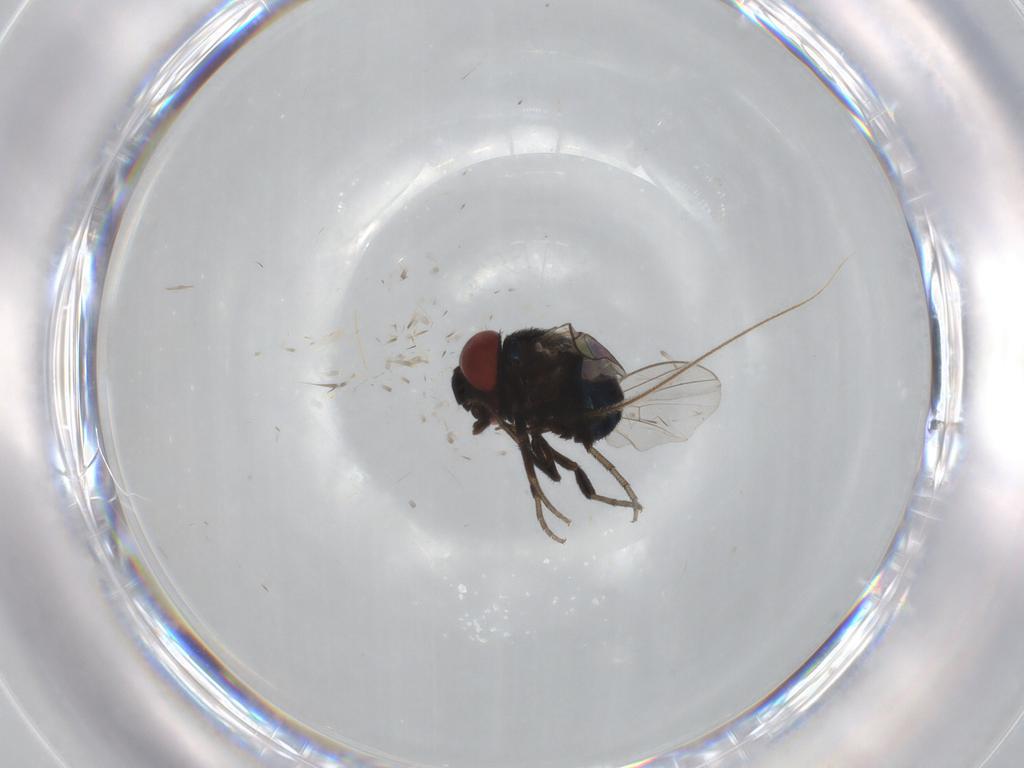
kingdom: Animalia
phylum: Arthropoda
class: Insecta
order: Diptera
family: Cryptochetidae
